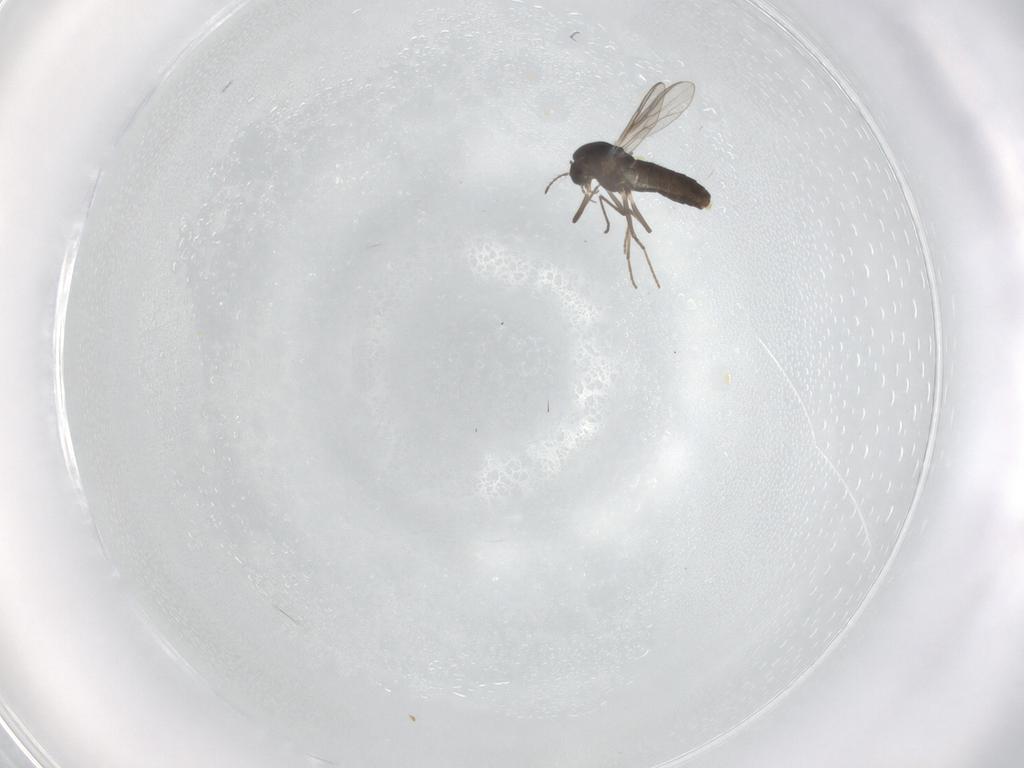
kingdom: Animalia
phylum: Arthropoda
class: Insecta
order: Diptera
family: Chironomidae
